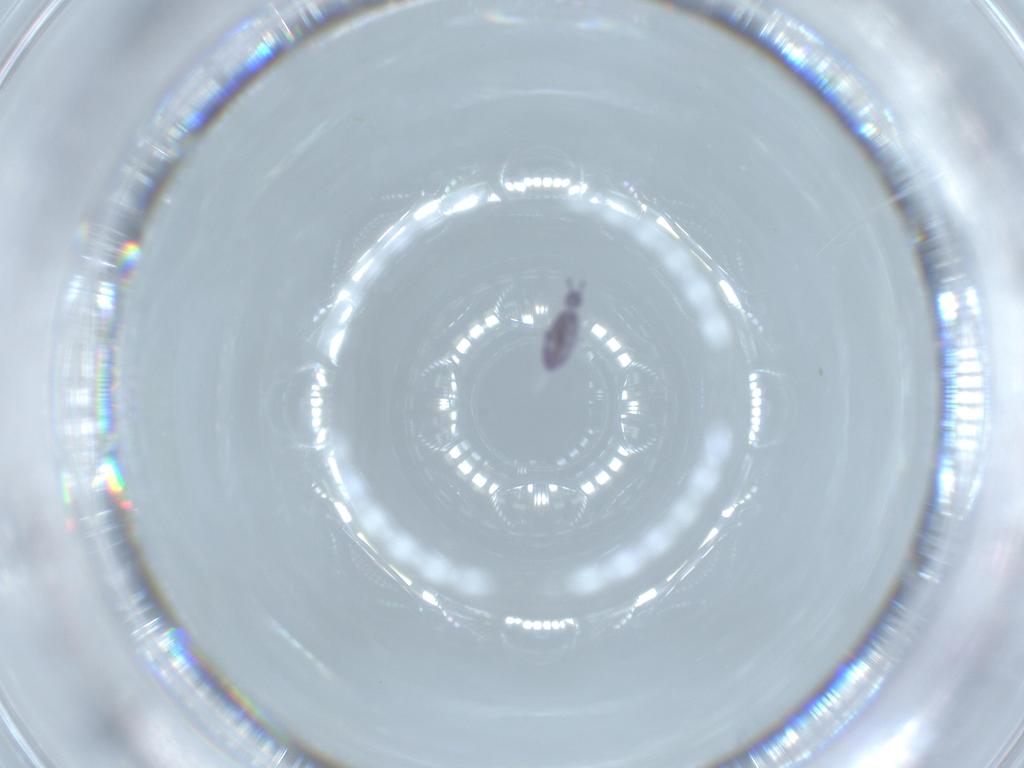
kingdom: Animalia
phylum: Arthropoda
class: Collembola
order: Entomobryomorpha
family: Entomobryidae
